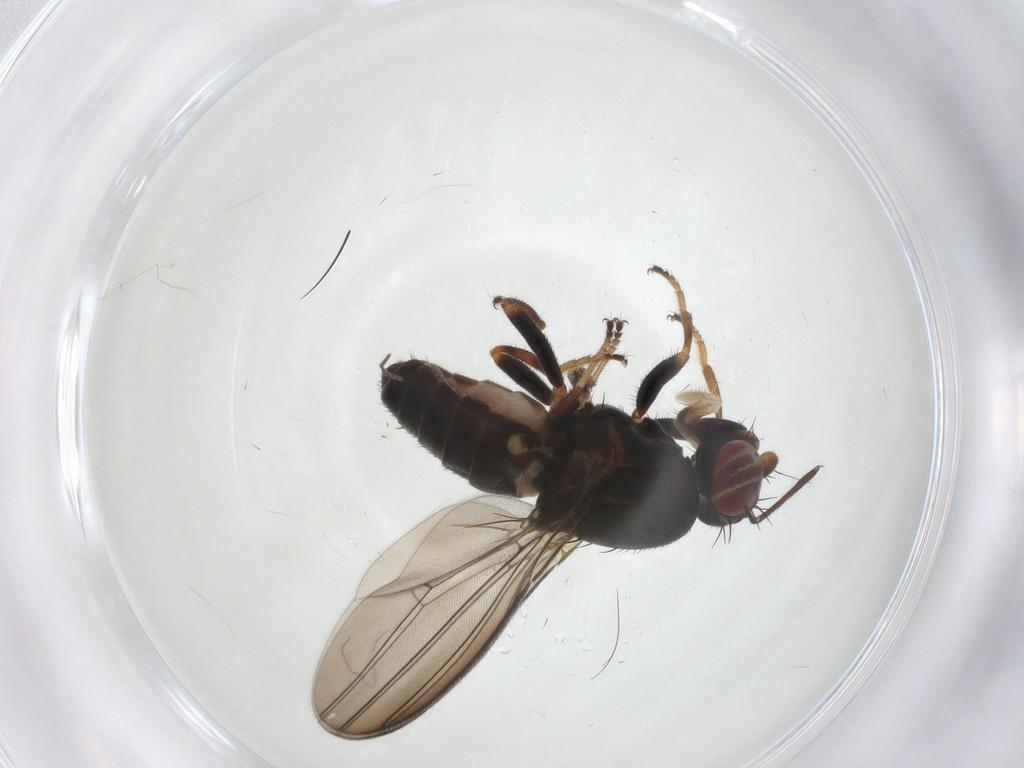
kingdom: Animalia
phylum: Arthropoda
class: Insecta
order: Diptera
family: Aulacigastridae
